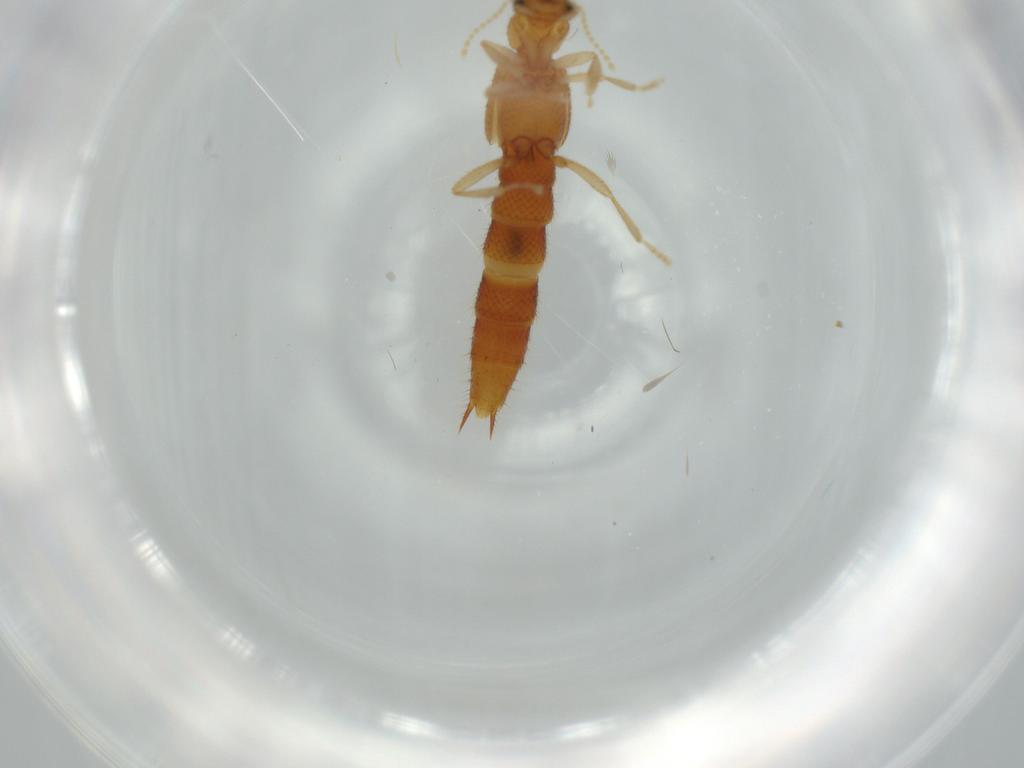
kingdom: Animalia
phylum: Arthropoda
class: Insecta
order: Coleoptera
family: Staphylinidae
